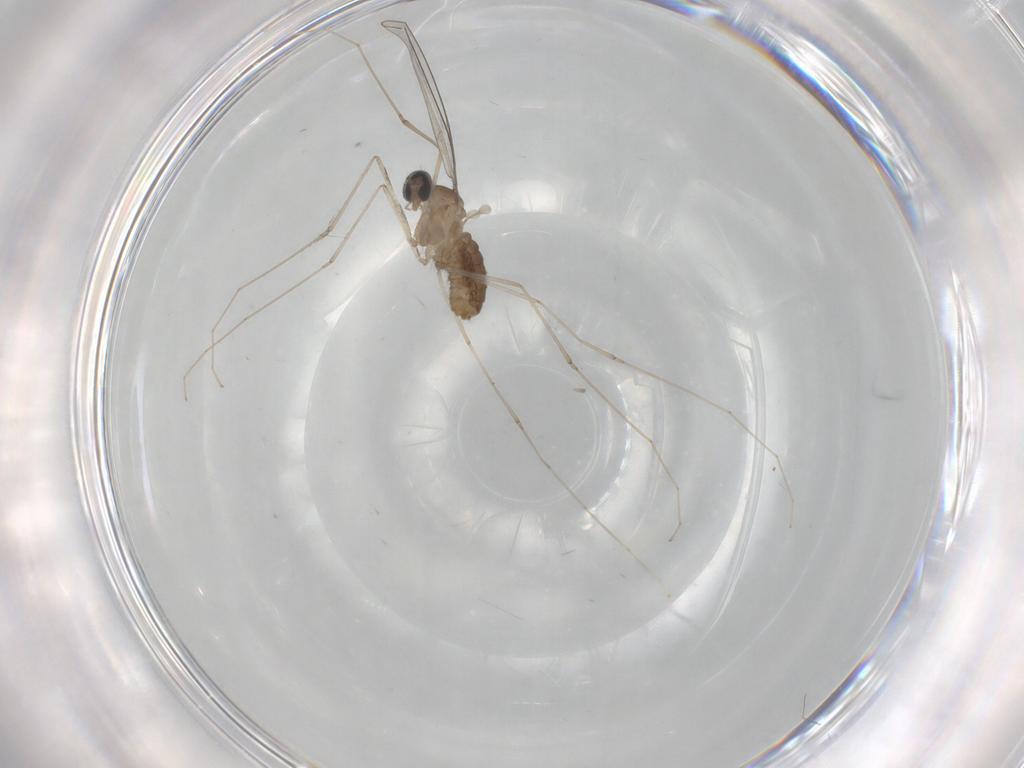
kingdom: Animalia
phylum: Arthropoda
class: Insecta
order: Diptera
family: Cecidomyiidae
